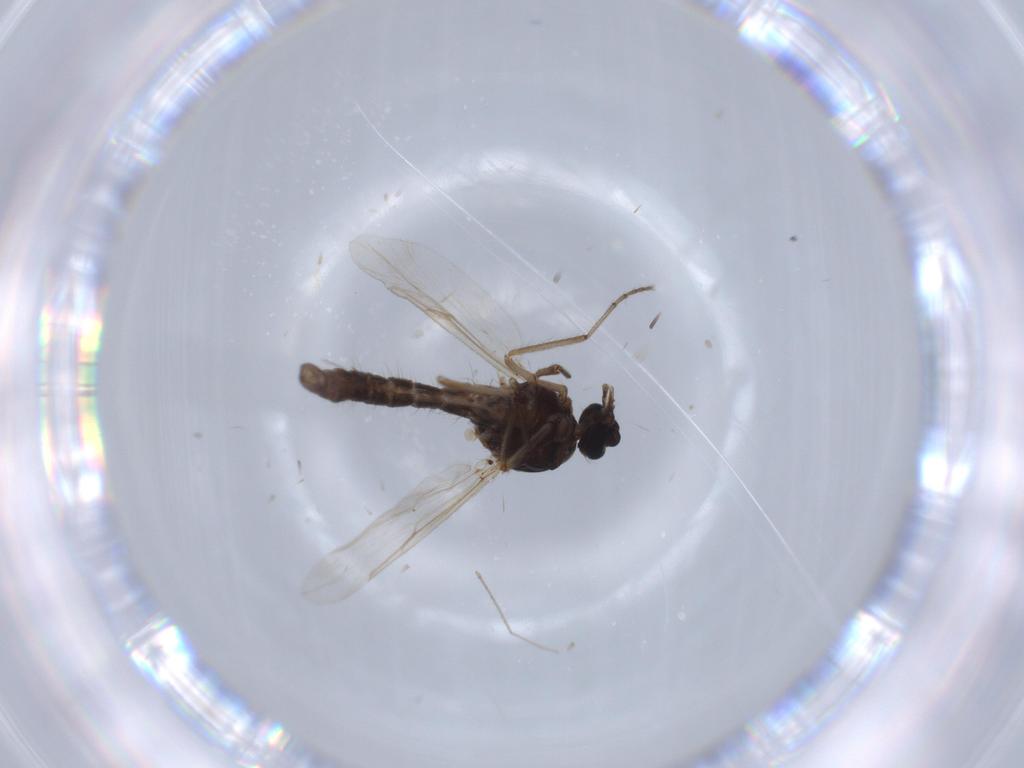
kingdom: Animalia
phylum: Arthropoda
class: Insecta
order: Diptera
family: Ceratopogonidae
